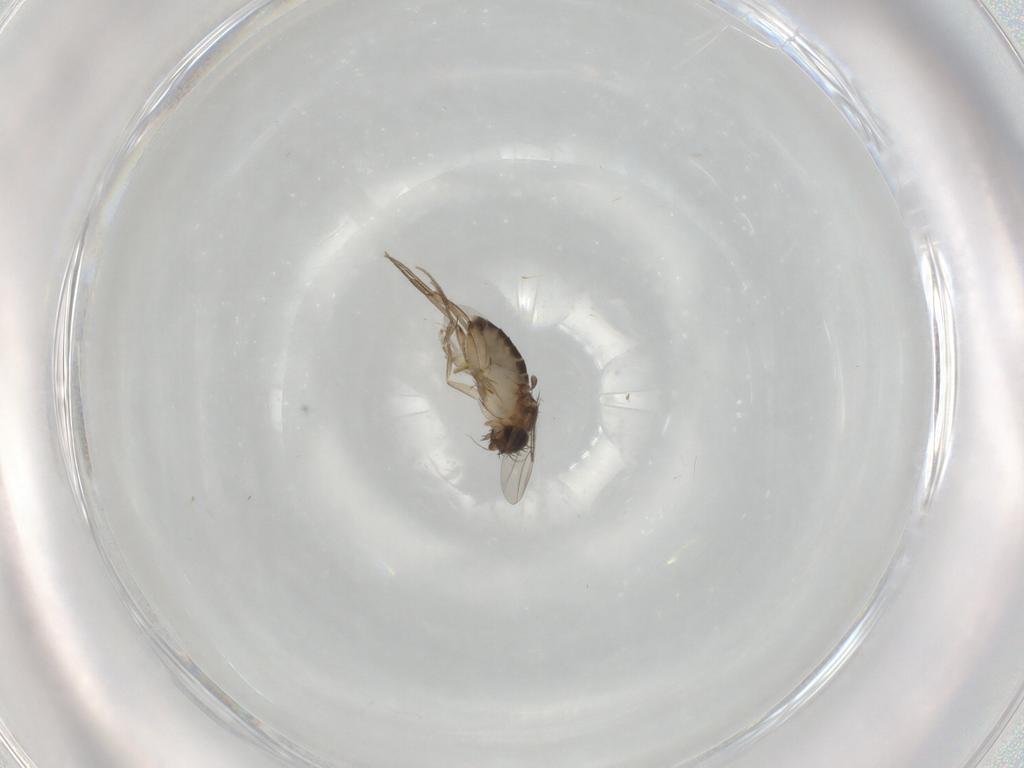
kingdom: Animalia
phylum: Arthropoda
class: Insecta
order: Diptera
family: Phoridae
